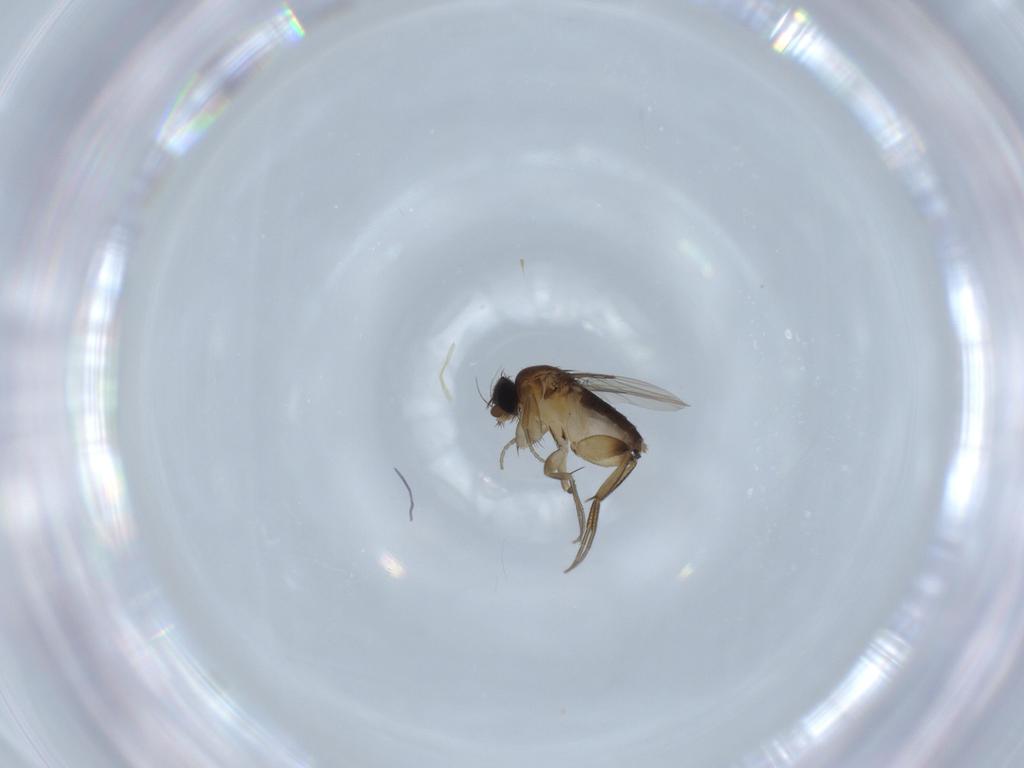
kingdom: Animalia
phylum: Arthropoda
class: Insecta
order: Diptera
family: Phoridae
